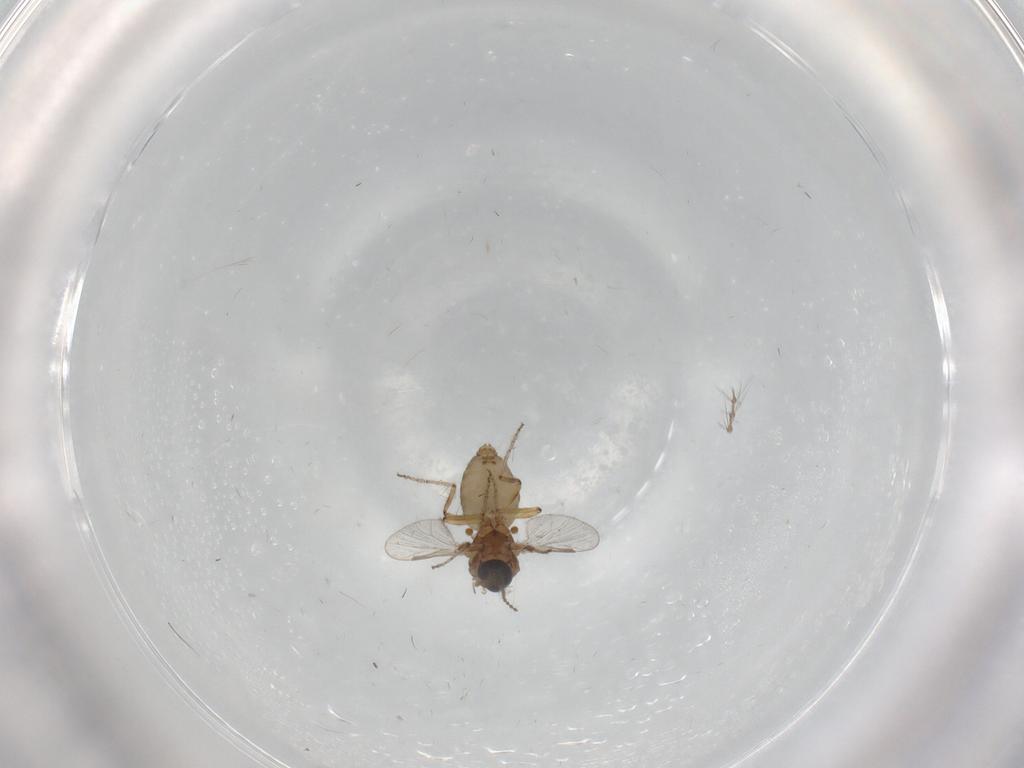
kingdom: Animalia
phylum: Arthropoda
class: Insecta
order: Diptera
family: Ceratopogonidae
